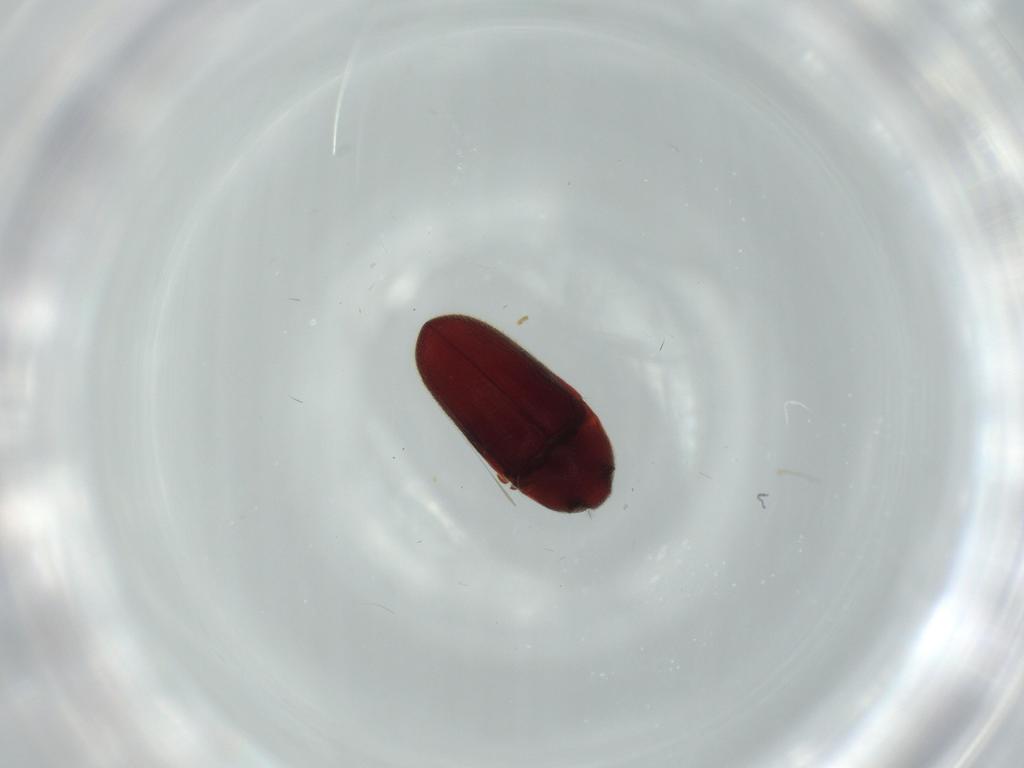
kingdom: Animalia
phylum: Arthropoda
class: Insecta
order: Coleoptera
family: Throscidae
